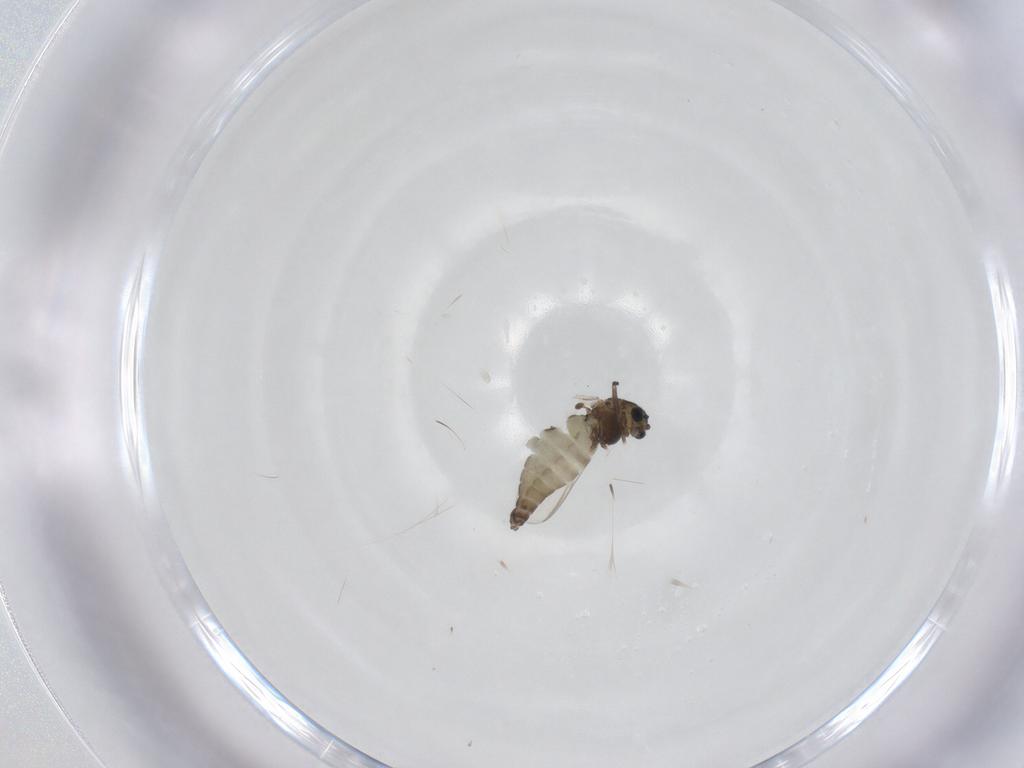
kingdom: Animalia
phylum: Arthropoda
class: Insecta
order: Diptera
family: Chironomidae
